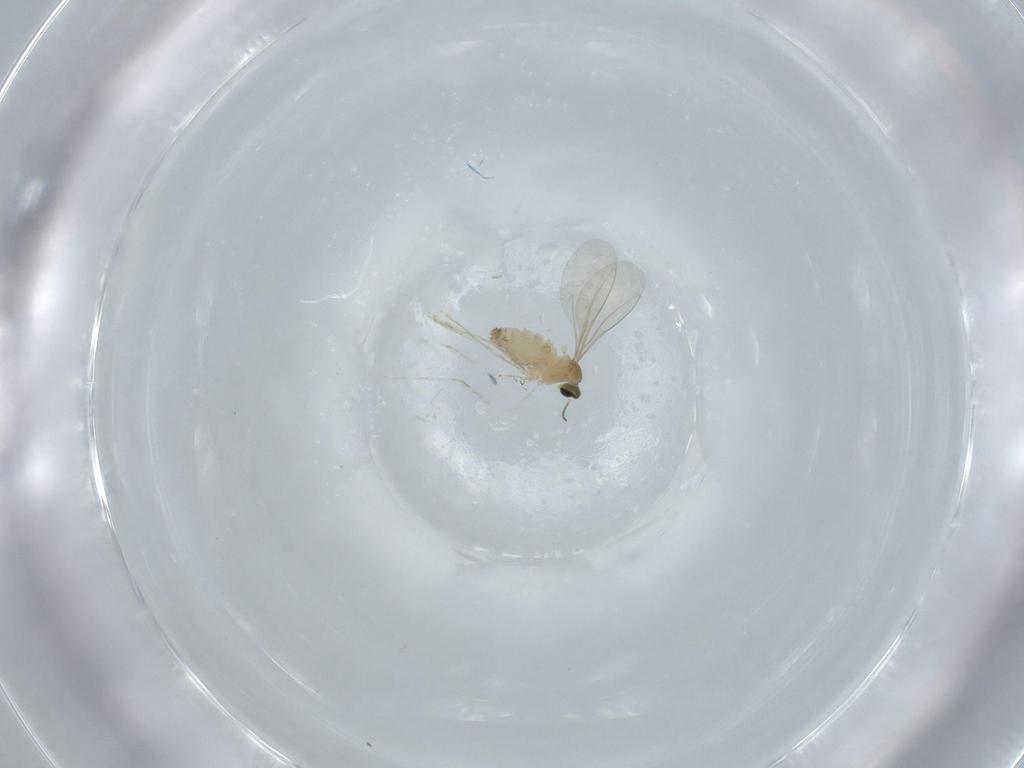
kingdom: Animalia
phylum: Arthropoda
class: Insecta
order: Diptera
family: Cecidomyiidae
